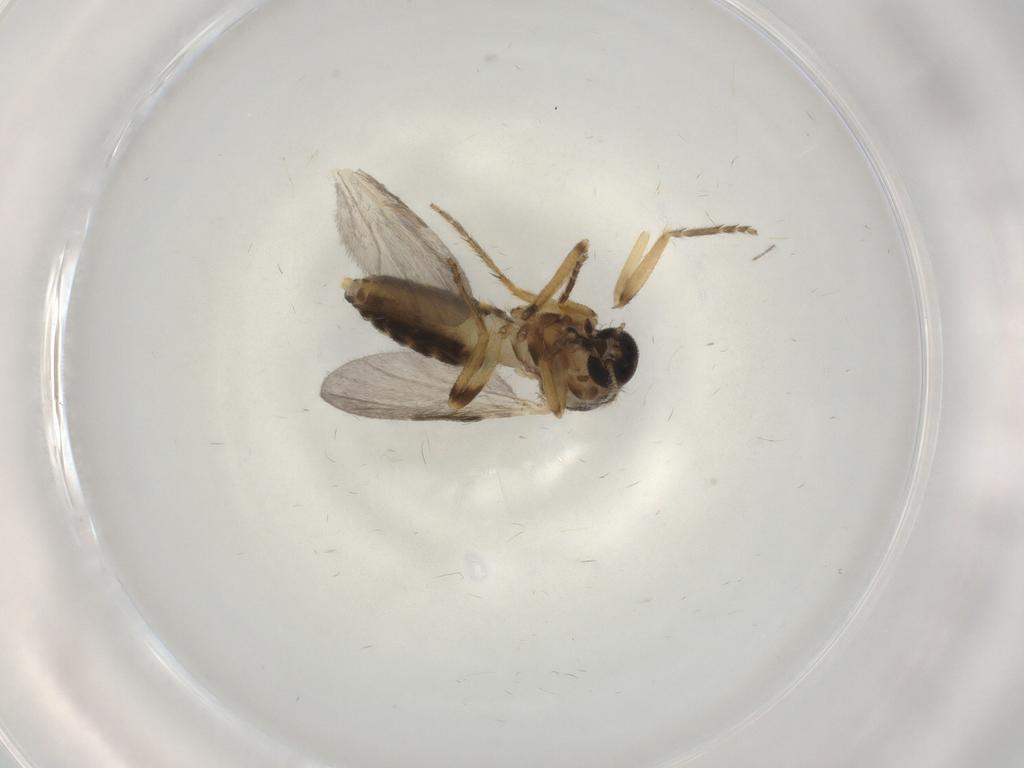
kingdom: Animalia
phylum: Arthropoda
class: Insecta
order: Diptera
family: Ceratopogonidae
